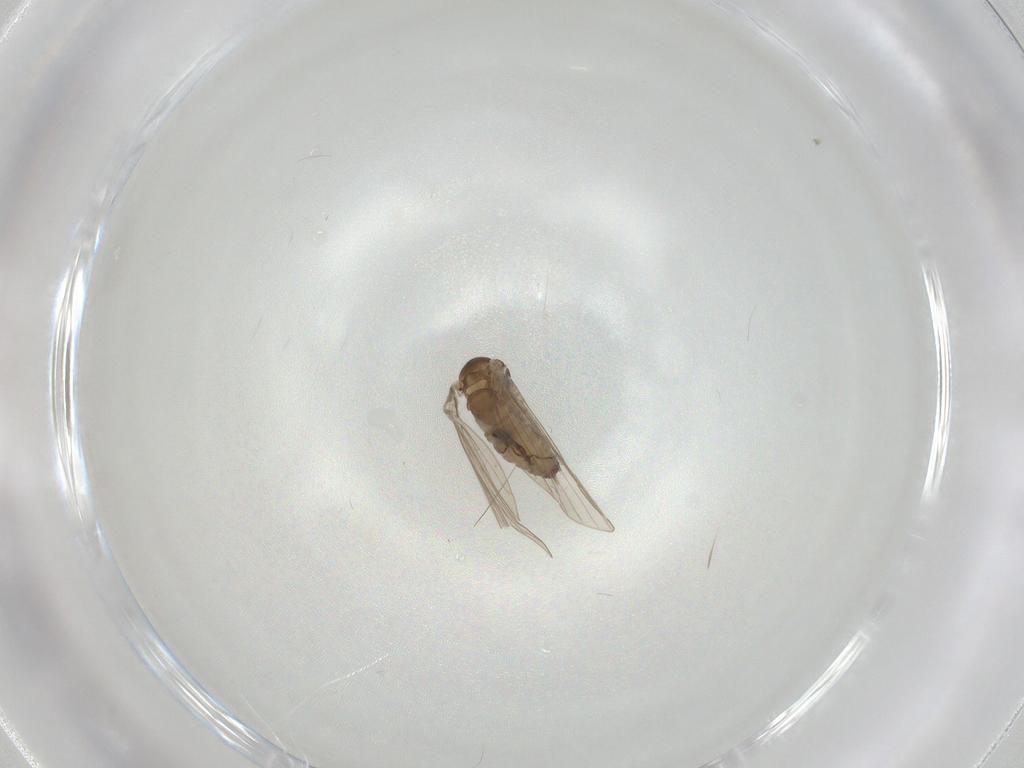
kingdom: Animalia
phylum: Arthropoda
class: Insecta
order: Diptera
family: Psychodidae
